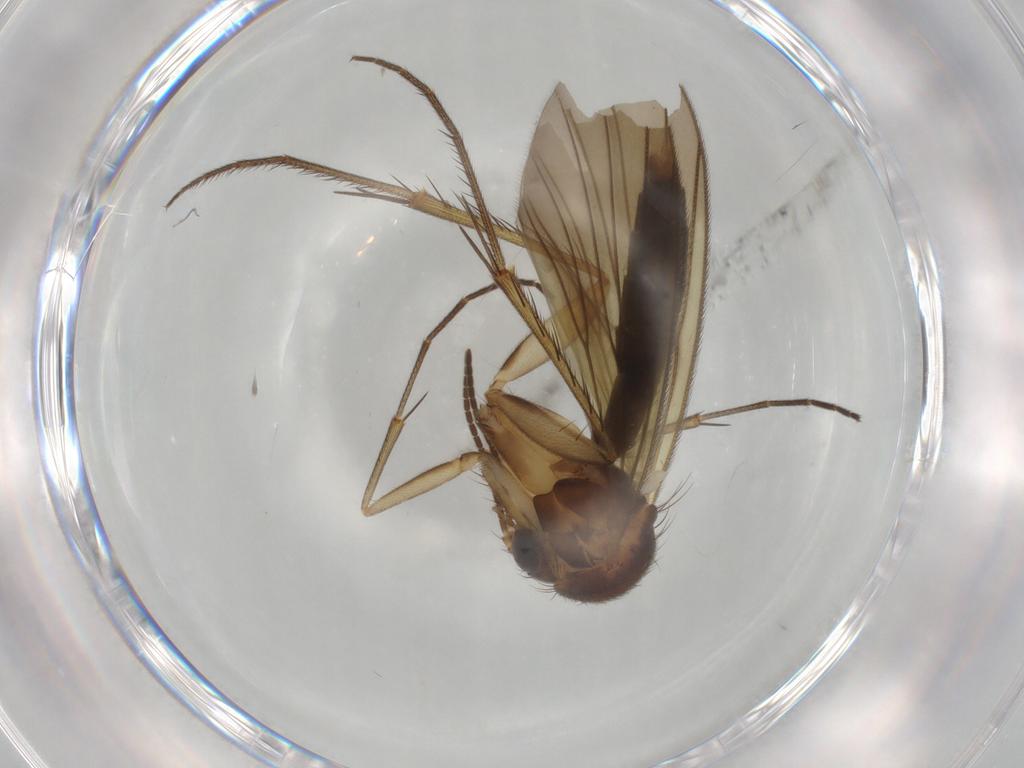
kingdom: Animalia
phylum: Arthropoda
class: Insecta
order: Diptera
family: Mycetophilidae
